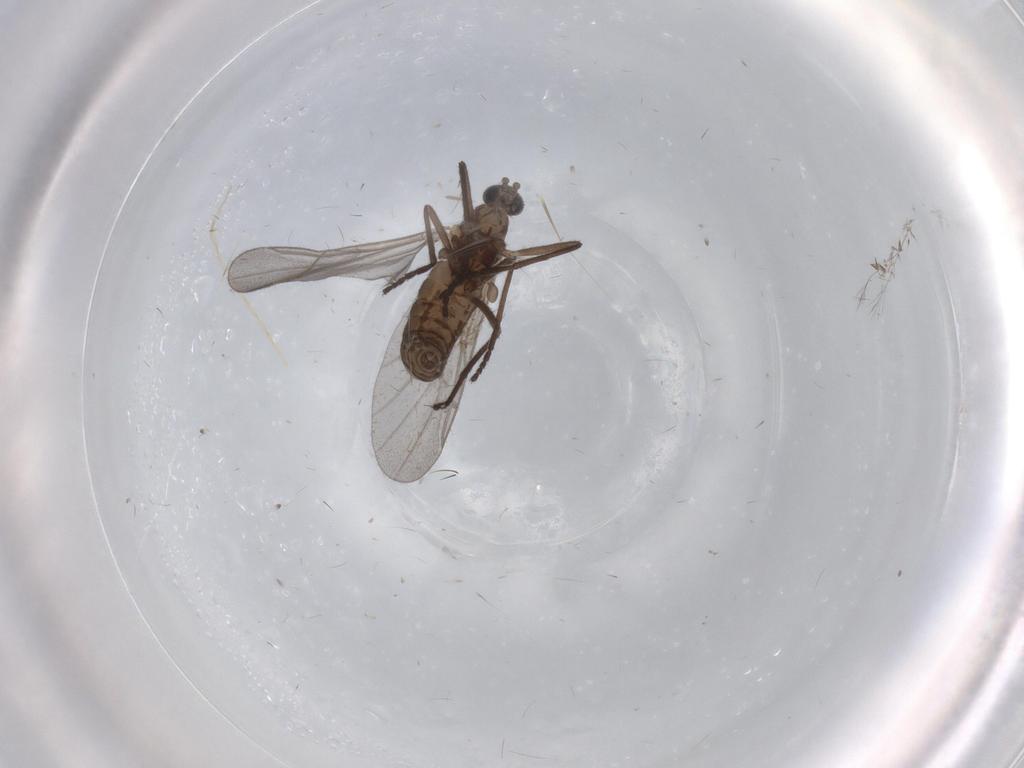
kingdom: Animalia
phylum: Arthropoda
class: Insecta
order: Diptera
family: Cecidomyiidae
